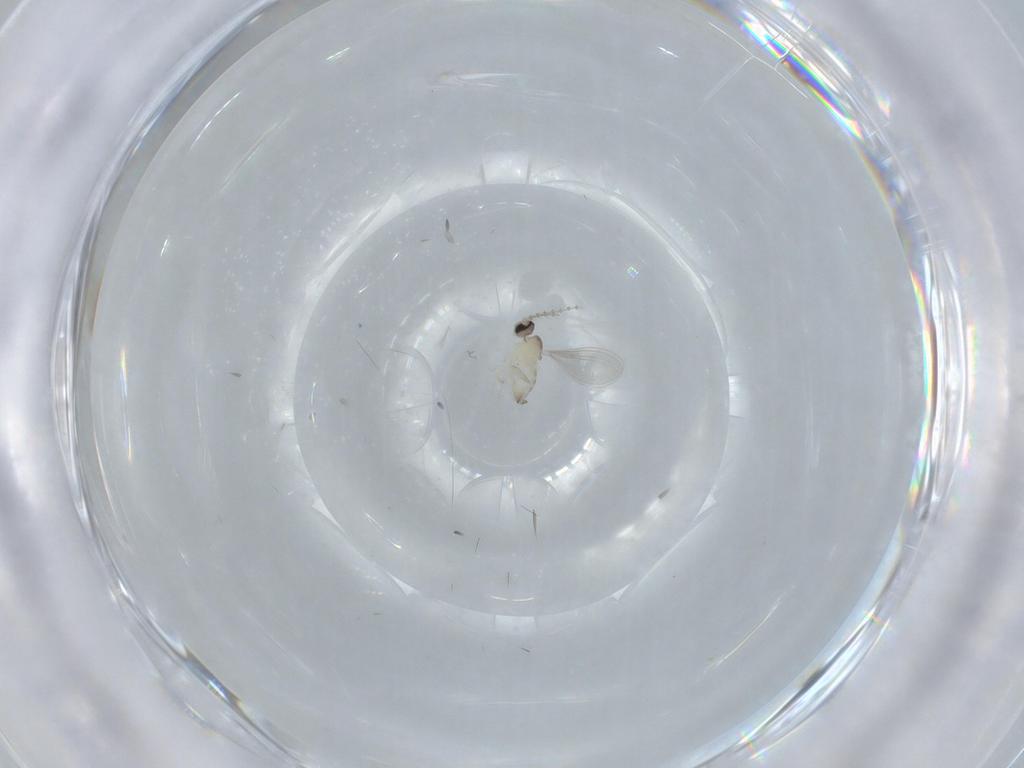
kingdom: Animalia
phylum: Arthropoda
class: Insecta
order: Diptera
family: Cecidomyiidae
